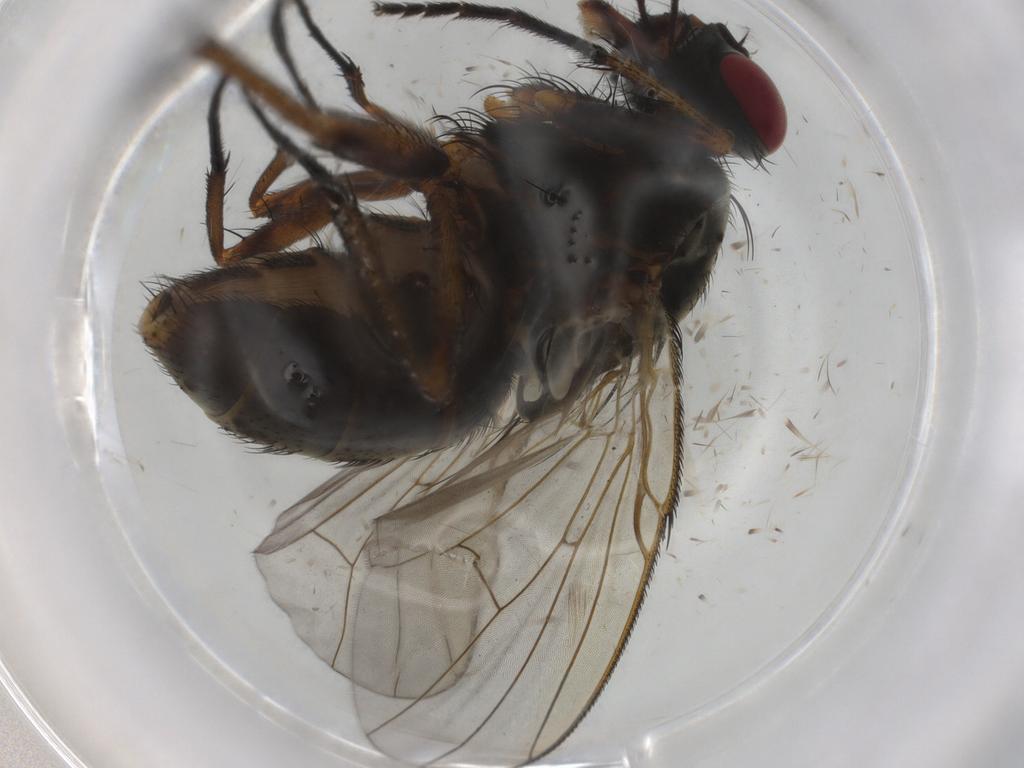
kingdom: Animalia
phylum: Arthropoda
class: Insecta
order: Diptera
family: Muscidae
